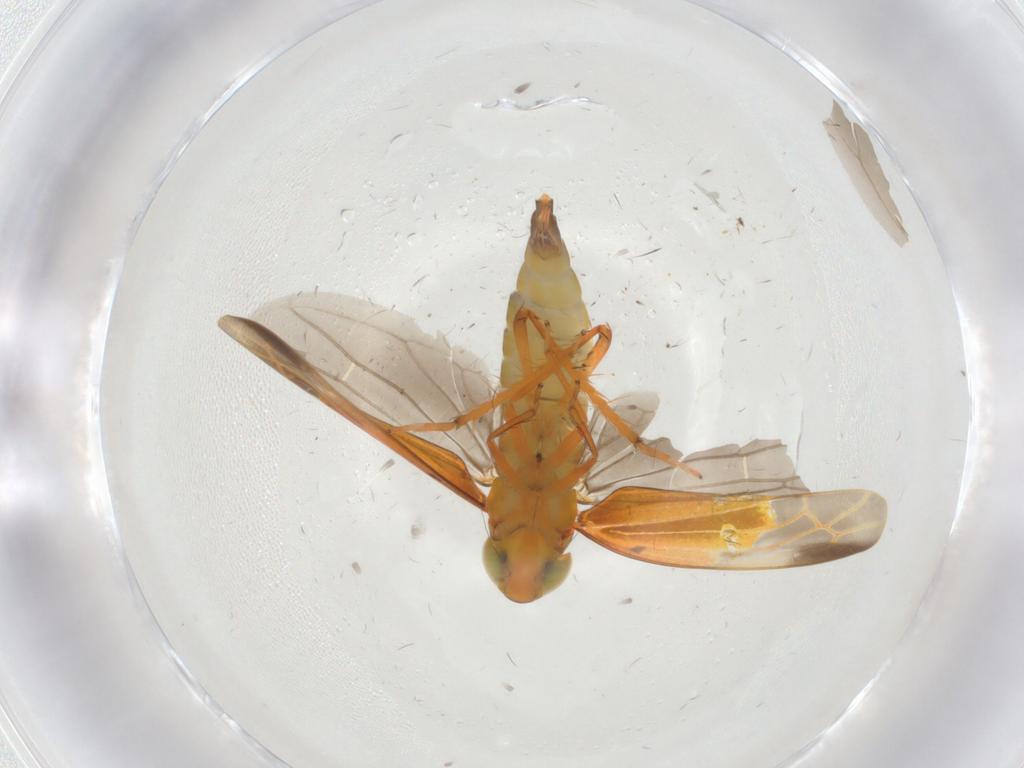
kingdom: Animalia
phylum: Arthropoda
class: Insecta
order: Hemiptera
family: Cicadellidae
